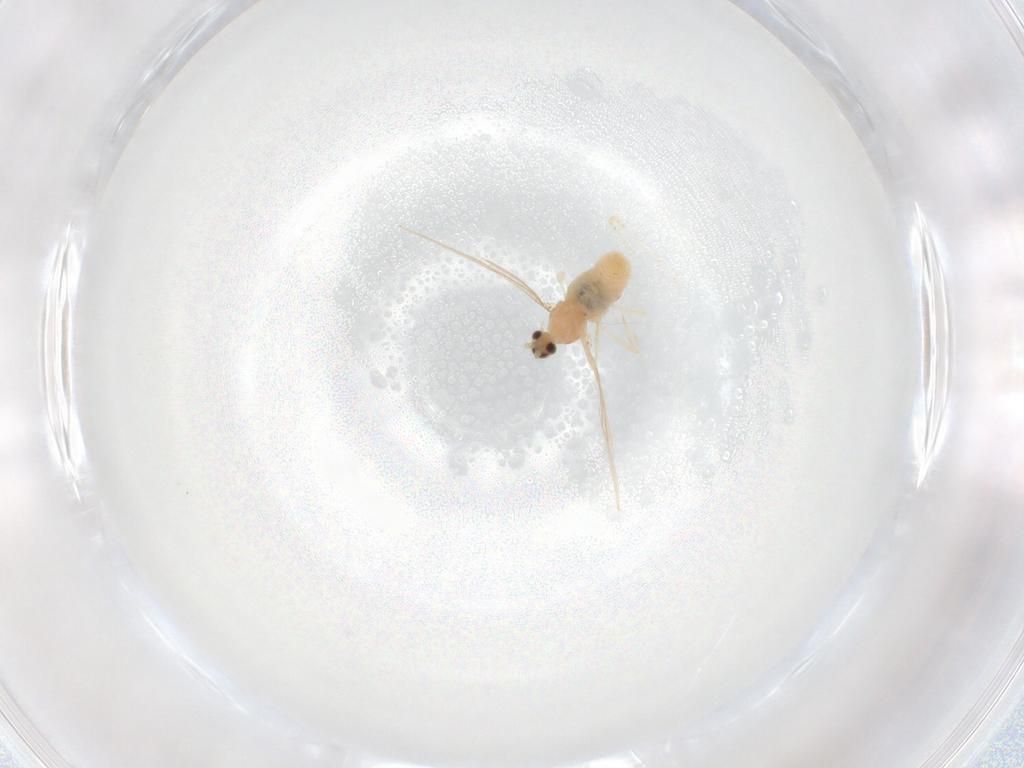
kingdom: Animalia
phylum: Arthropoda
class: Insecta
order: Diptera
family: Cecidomyiidae
